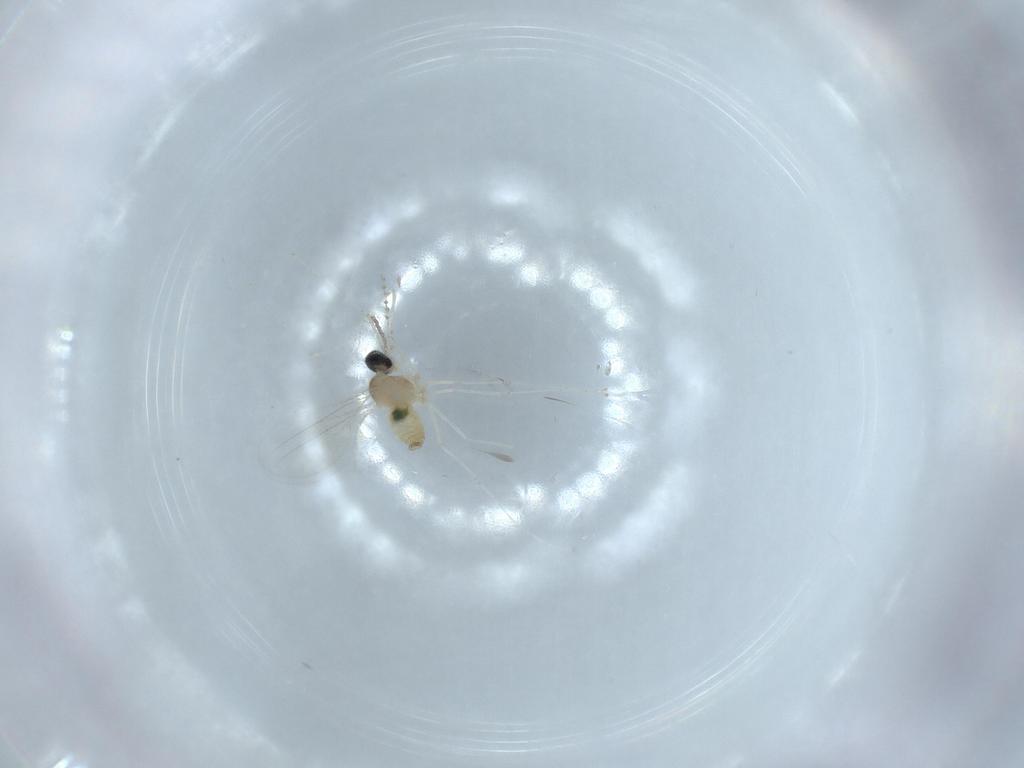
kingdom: Animalia
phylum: Arthropoda
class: Insecta
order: Diptera
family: Cecidomyiidae
